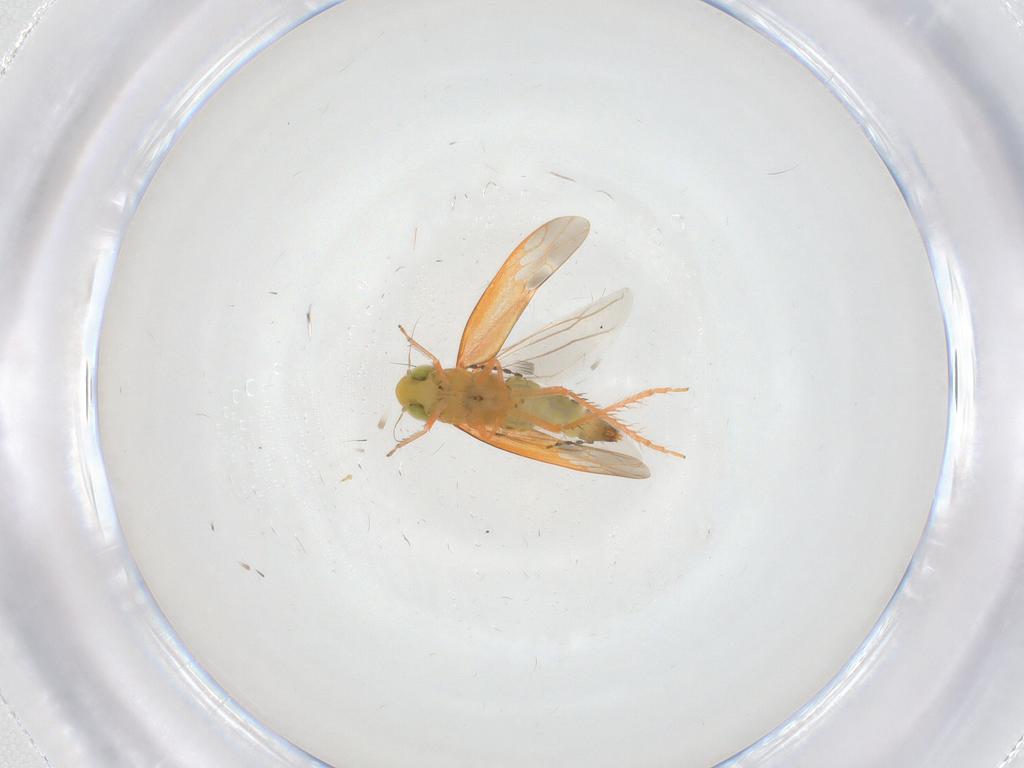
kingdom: Animalia
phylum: Arthropoda
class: Insecta
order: Hemiptera
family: Cicadellidae
